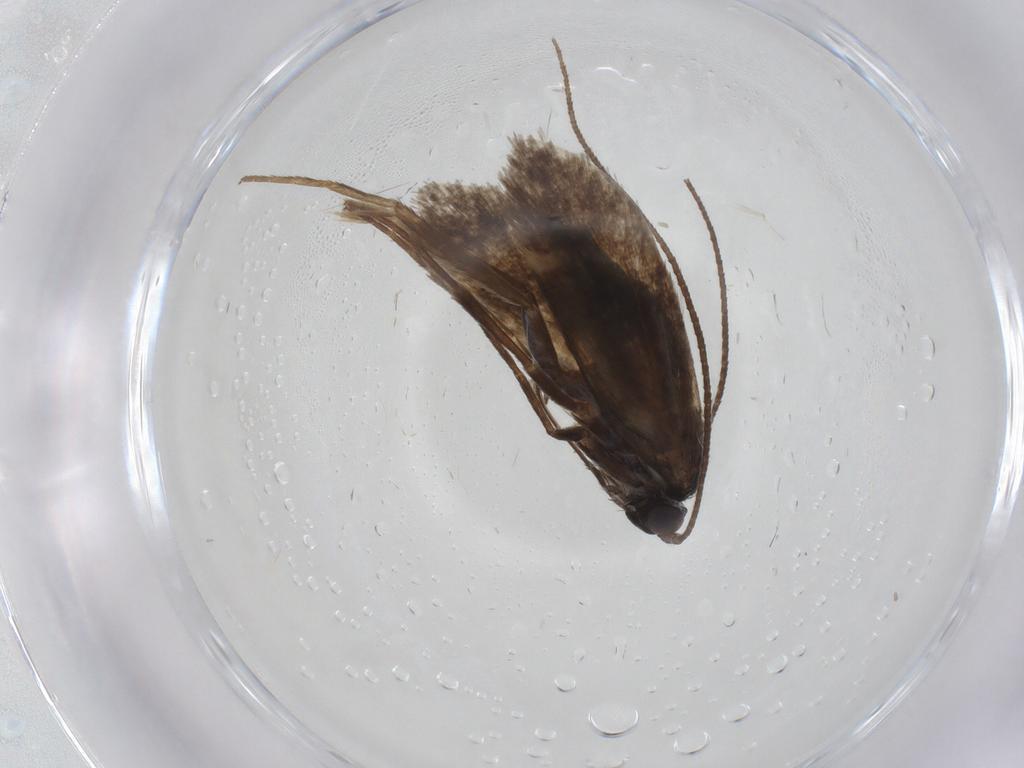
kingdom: Animalia
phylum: Arthropoda
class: Insecta
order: Lepidoptera
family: Adelidae
